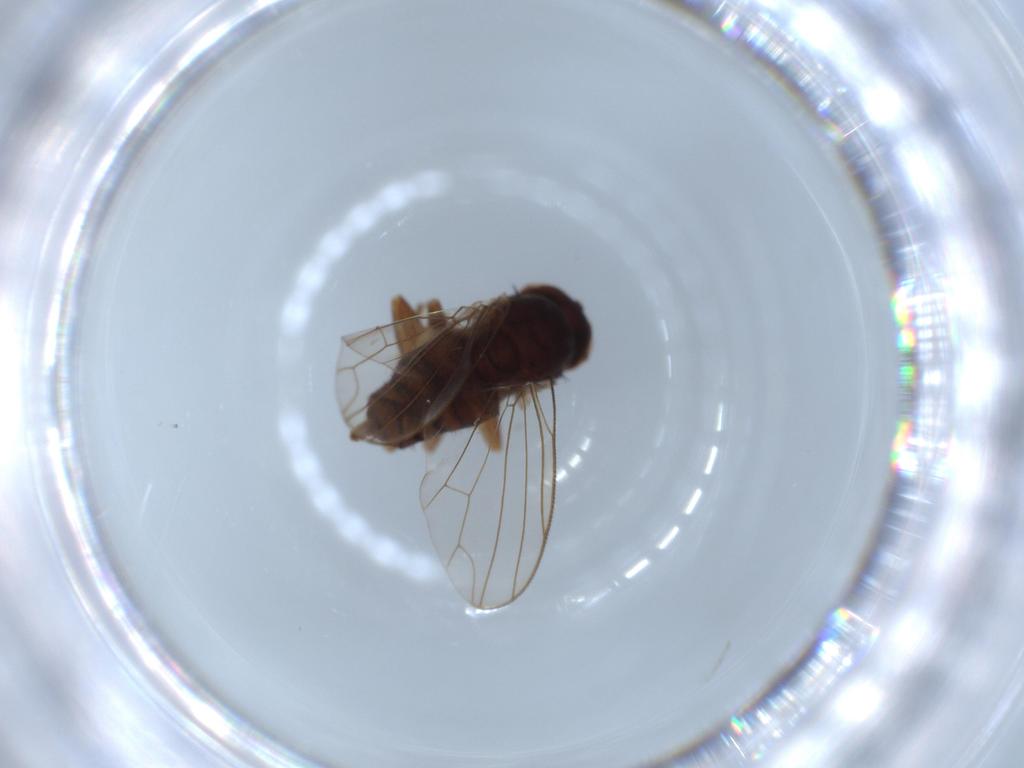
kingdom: Animalia
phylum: Arthropoda
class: Insecta
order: Diptera
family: Platypezidae
